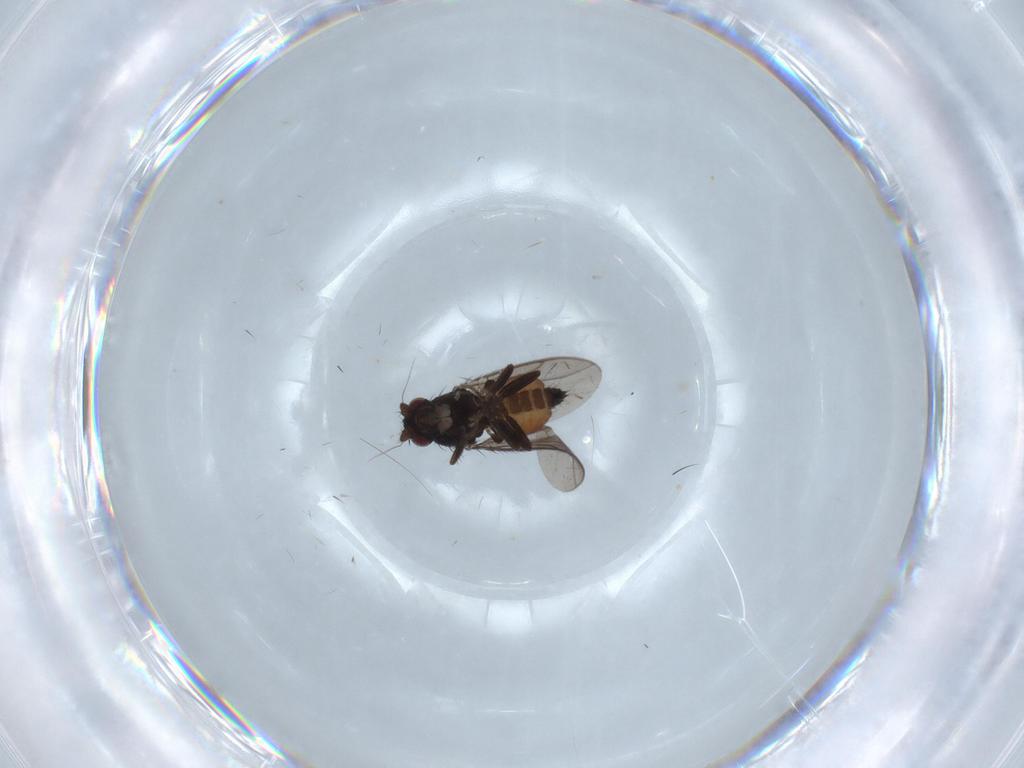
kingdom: Animalia
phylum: Arthropoda
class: Insecta
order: Diptera
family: Sphaeroceridae
